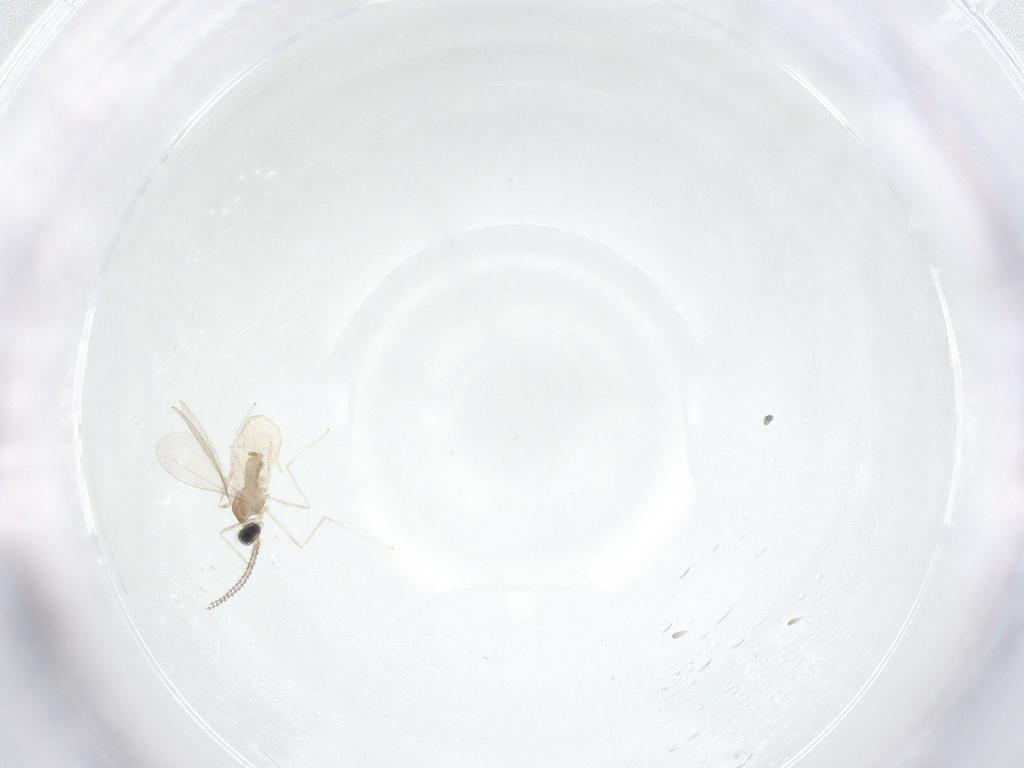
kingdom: Animalia
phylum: Arthropoda
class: Insecta
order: Diptera
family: Cecidomyiidae
